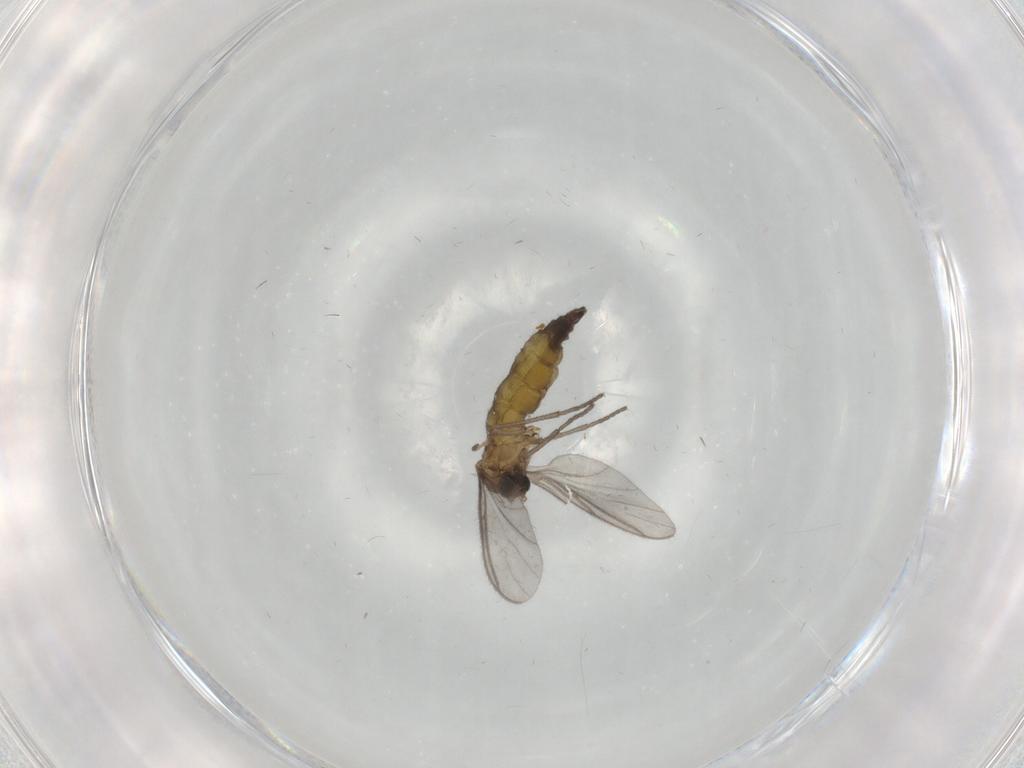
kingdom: Animalia
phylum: Arthropoda
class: Insecta
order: Diptera
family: Sciaridae
